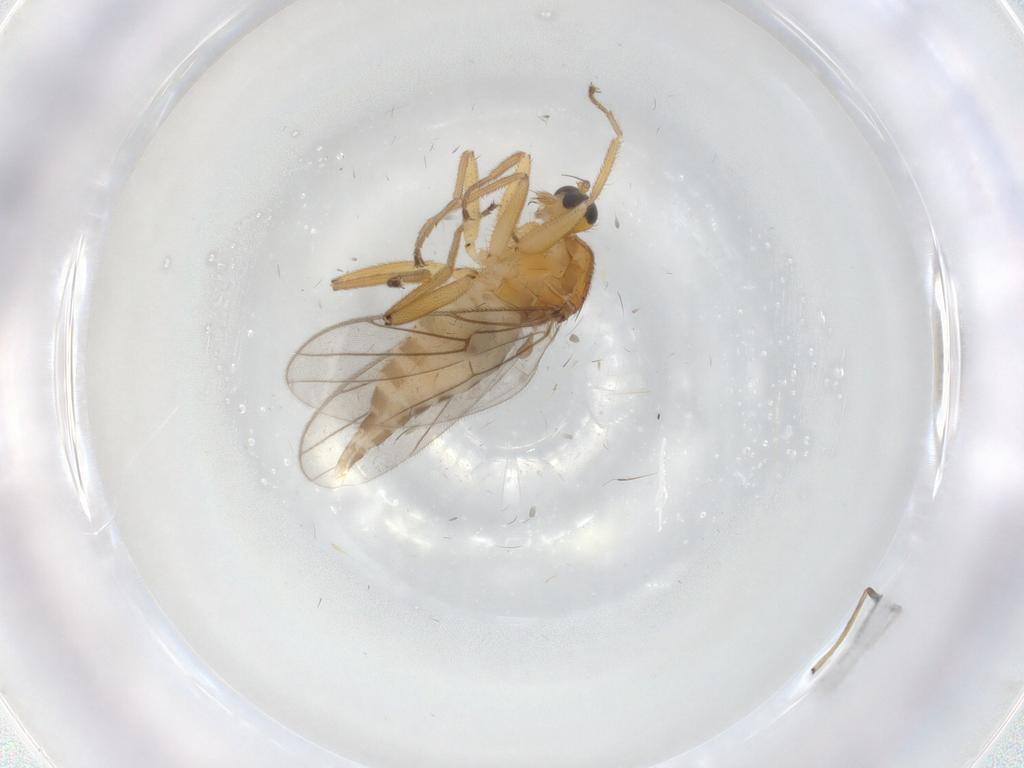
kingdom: Animalia
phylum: Arthropoda
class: Insecta
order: Diptera
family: Hybotidae
